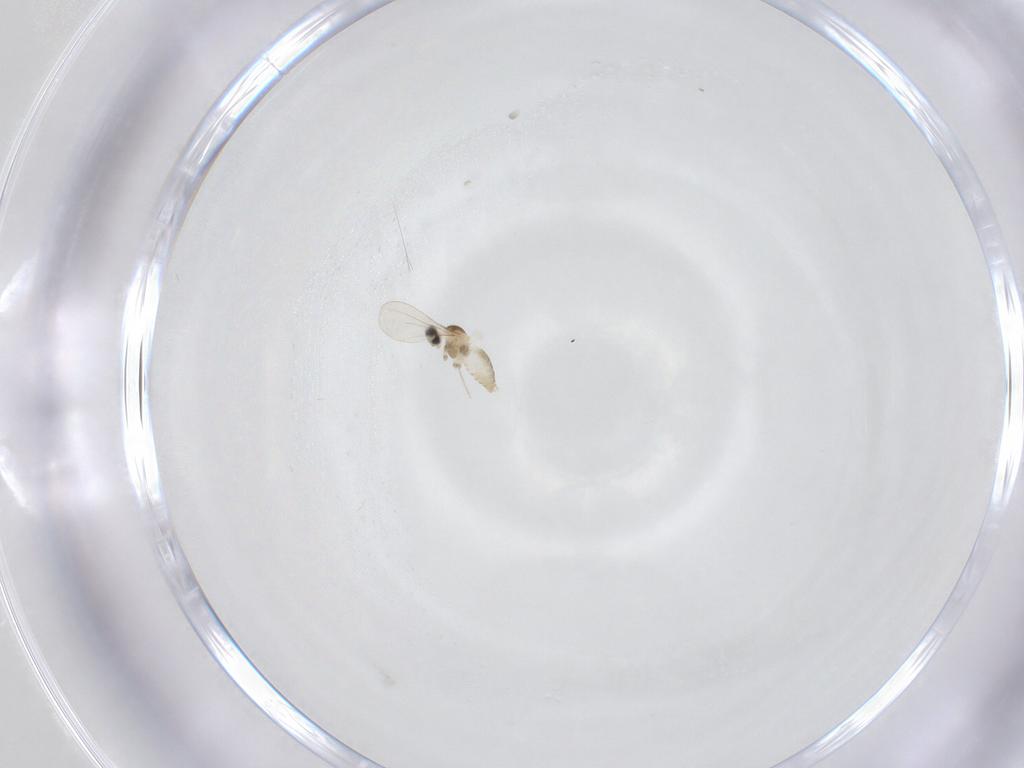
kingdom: Animalia
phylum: Arthropoda
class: Insecta
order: Diptera
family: Cecidomyiidae
